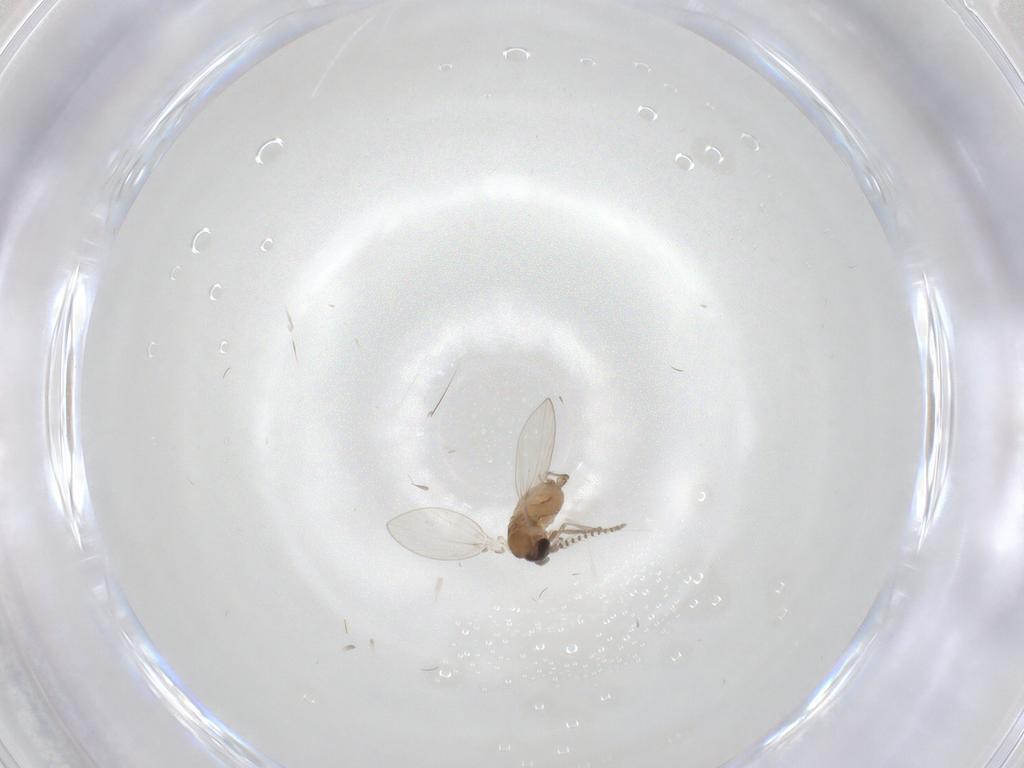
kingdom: Animalia
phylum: Arthropoda
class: Insecta
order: Diptera
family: Psychodidae
